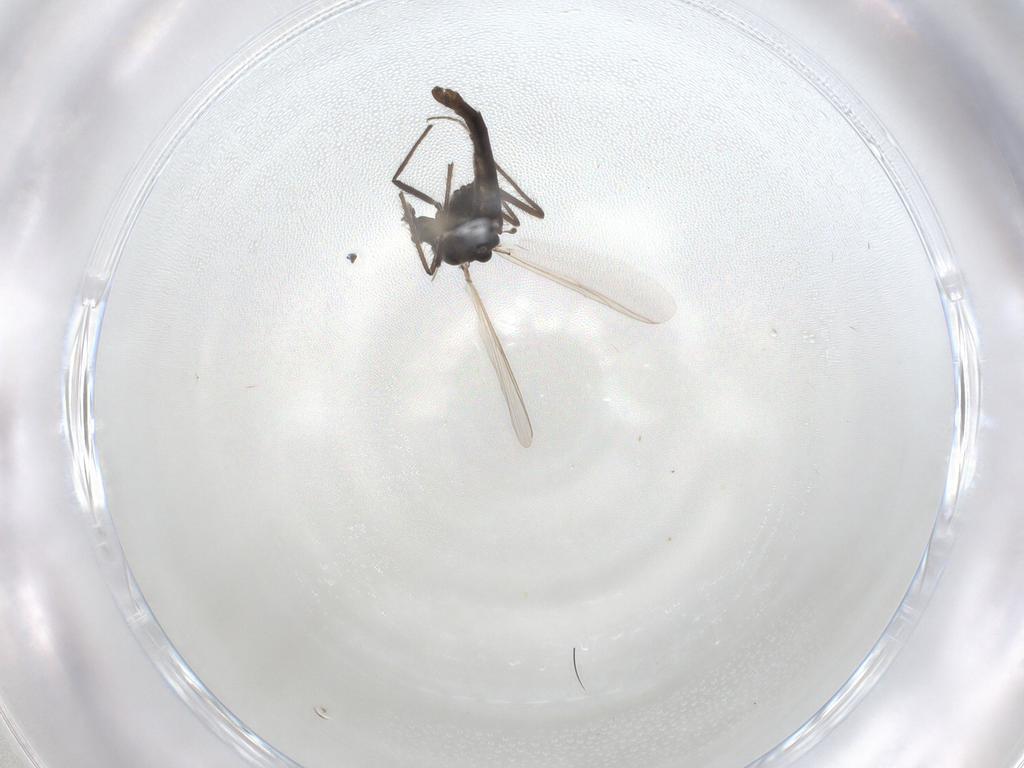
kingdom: Animalia
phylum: Arthropoda
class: Insecta
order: Diptera
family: Chironomidae
